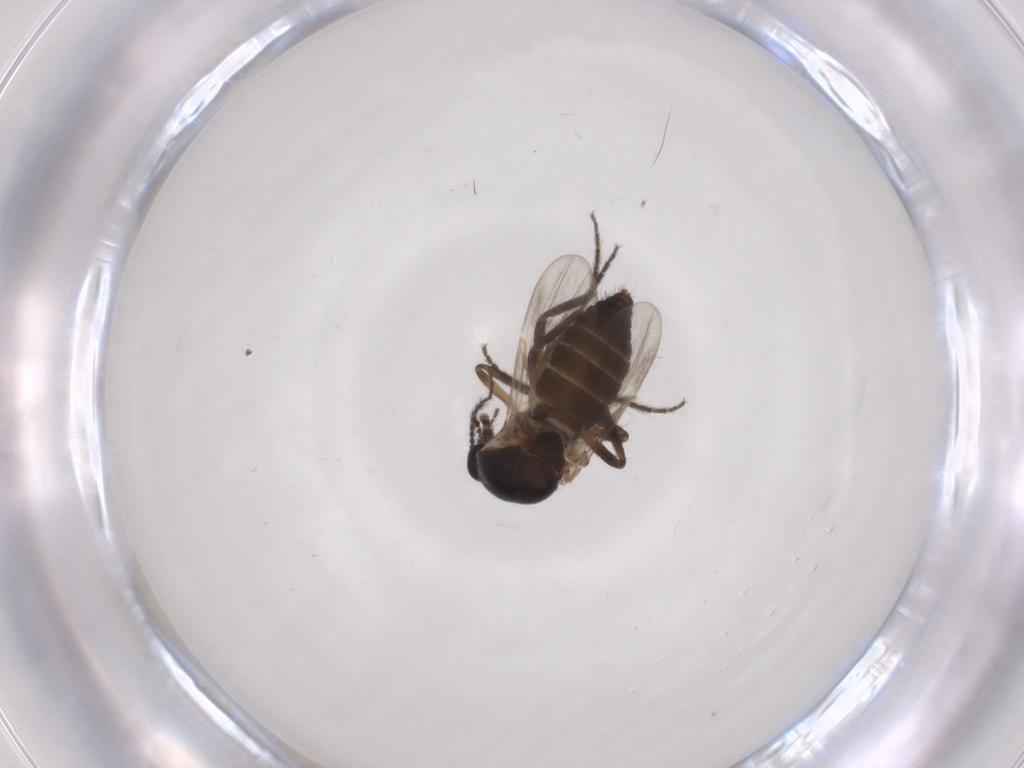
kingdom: Animalia
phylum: Arthropoda
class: Insecta
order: Diptera
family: Ceratopogonidae
